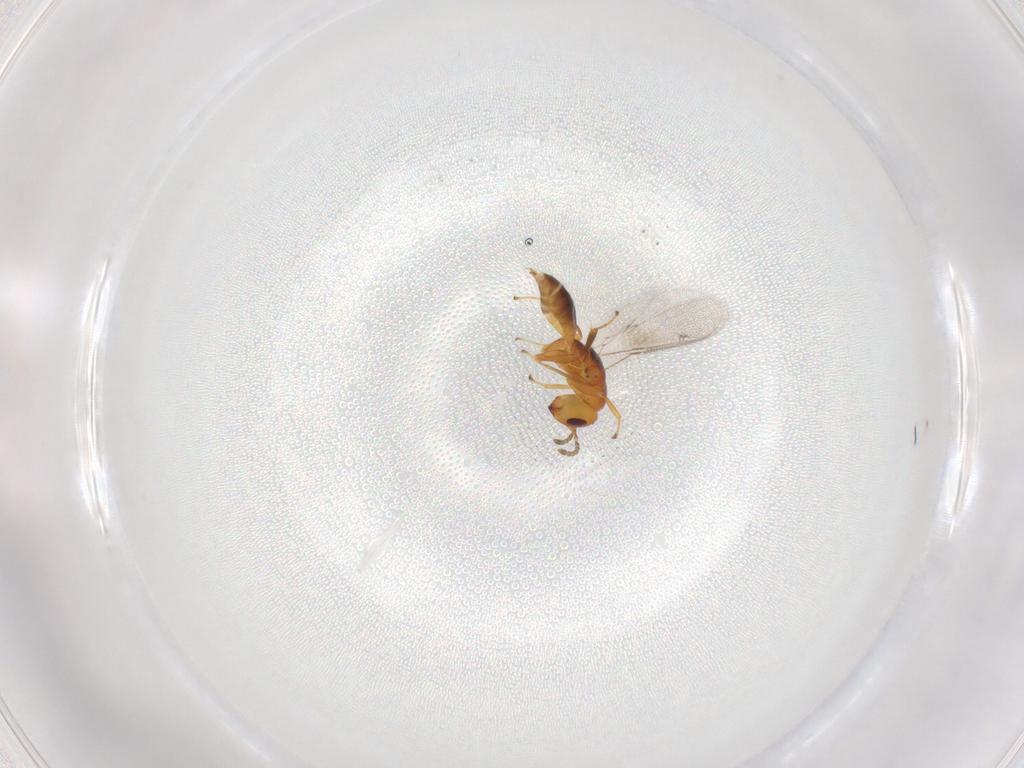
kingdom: Animalia
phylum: Arthropoda
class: Insecta
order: Hymenoptera
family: Pteromalidae
